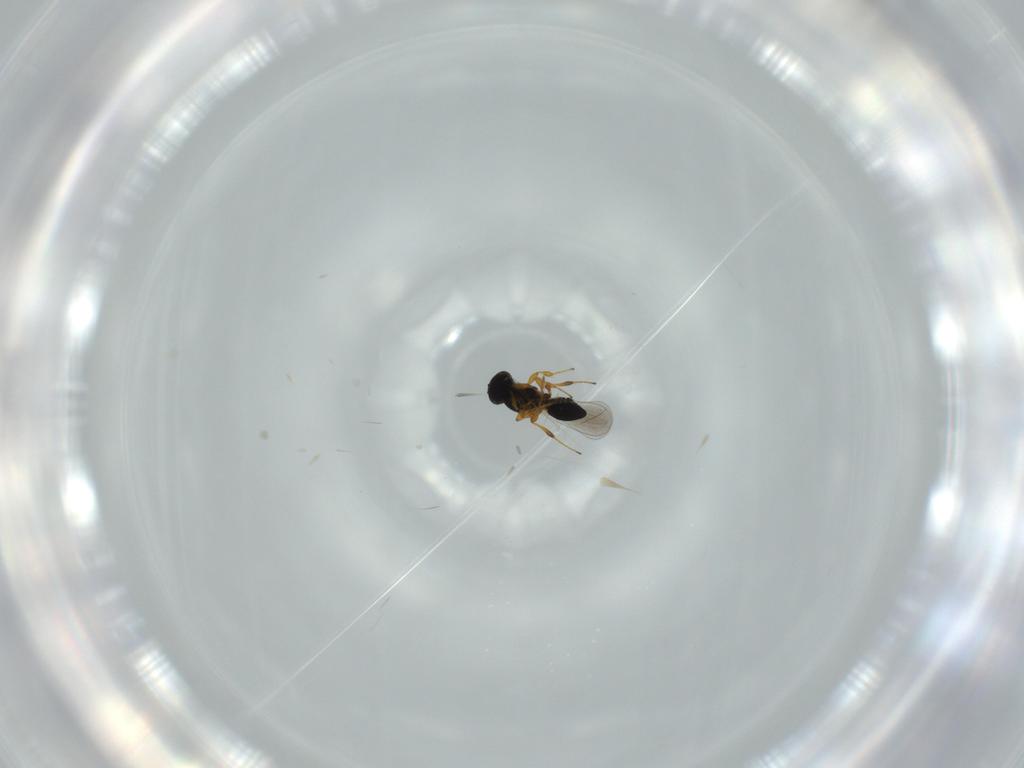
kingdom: Animalia
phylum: Arthropoda
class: Insecta
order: Hymenoptera
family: Platygastridae
